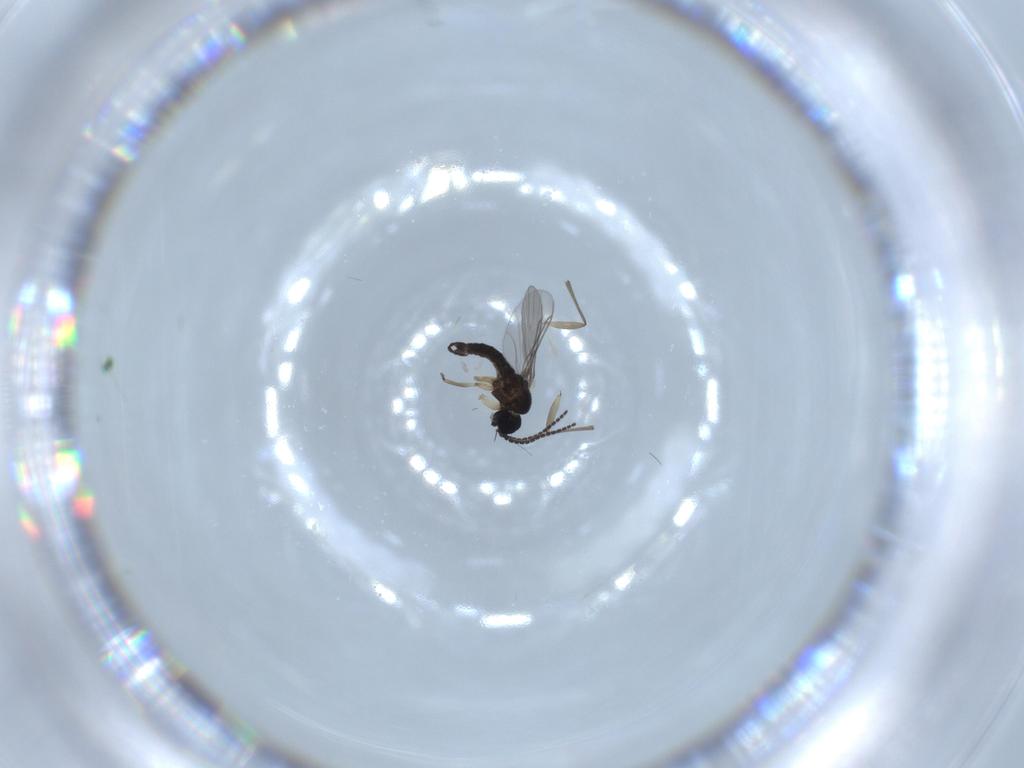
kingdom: Animalia
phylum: Arthropoda
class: Insecta
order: Diptera
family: Sciaridae
